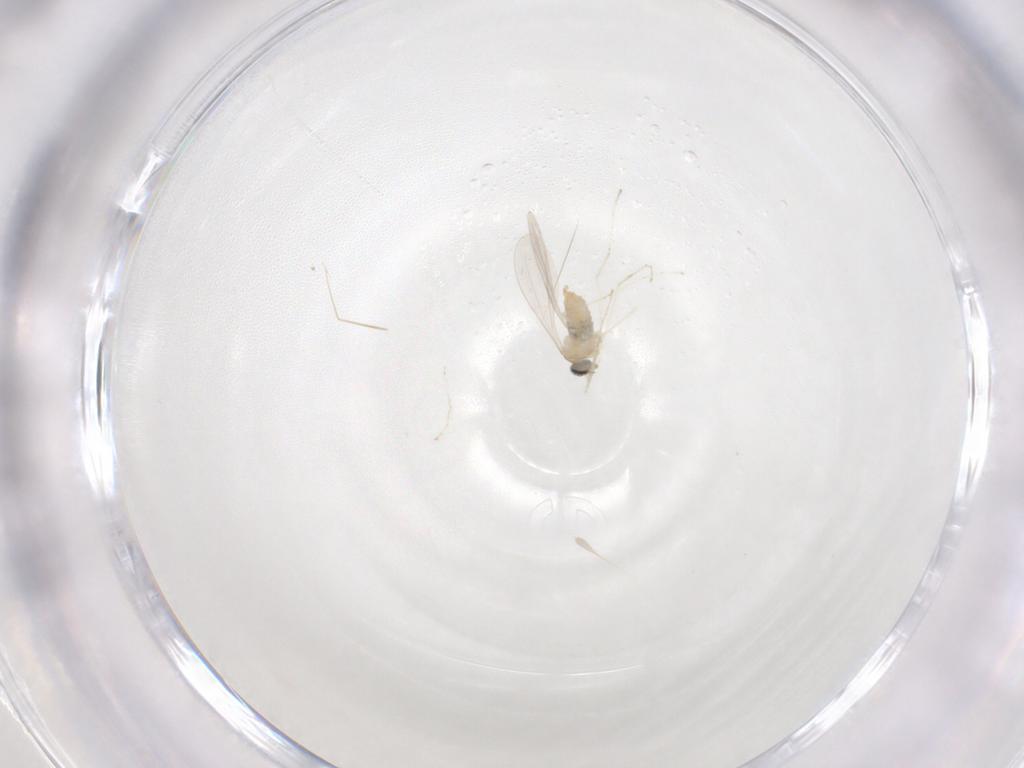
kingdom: Animalia
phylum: Arthropoda
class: Insecta
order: Diptera
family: Cecidomyiidae
